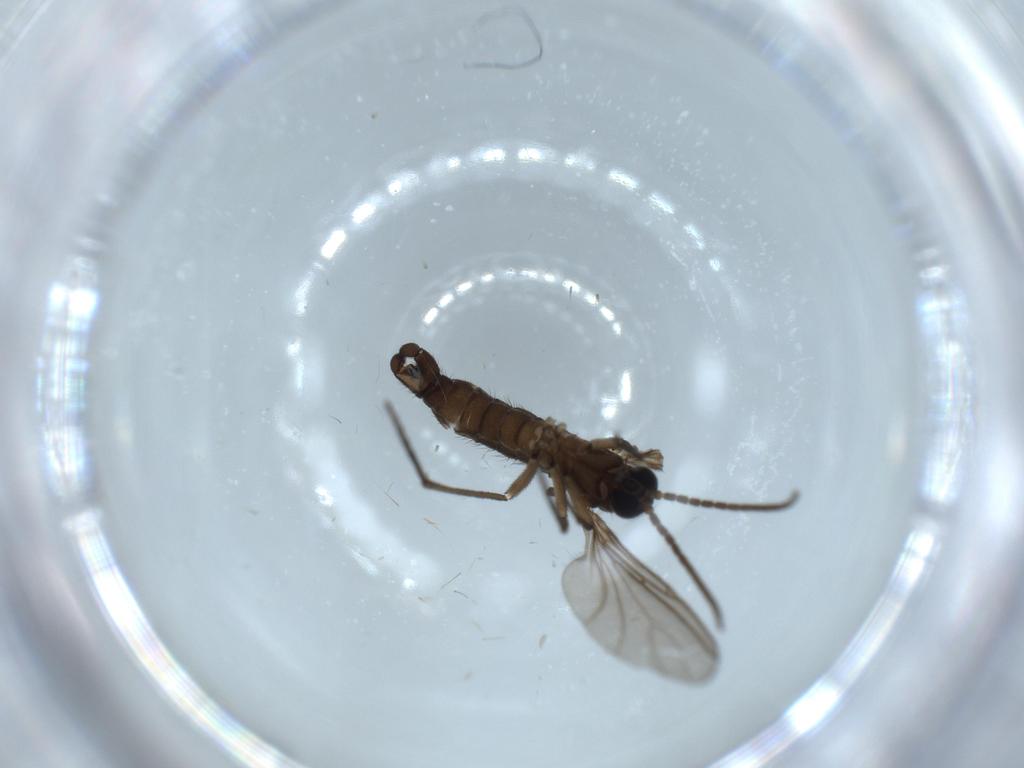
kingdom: Animalia
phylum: Arthropoda
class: Insecta
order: Diptera
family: Sciaridae
